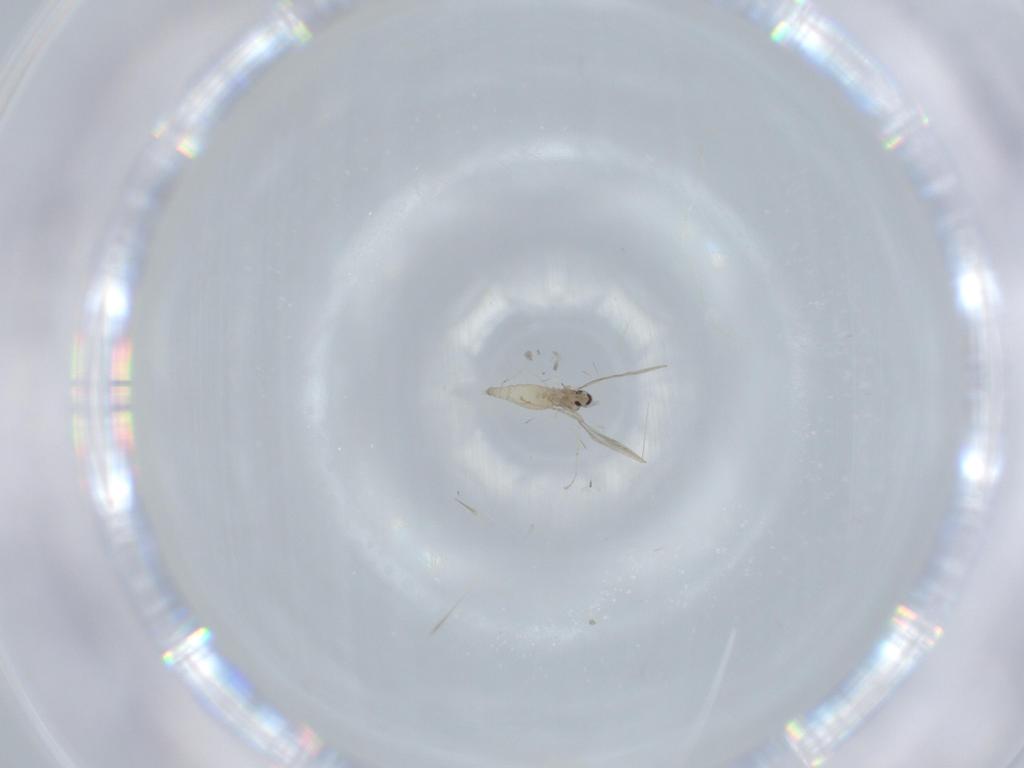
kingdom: Animalia
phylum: Arthropoda
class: Insecta
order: Diptera
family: Cecidomyiidae
